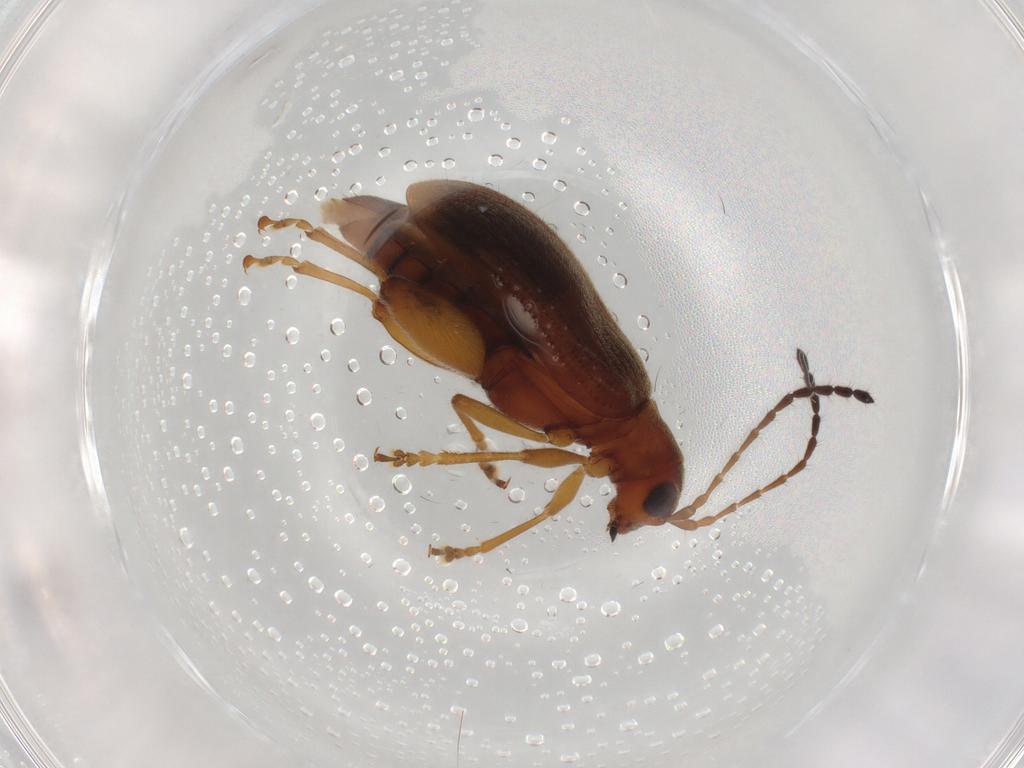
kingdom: Animalia
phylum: Arthropoda
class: Insecta
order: Coleoptera
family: Chrysomelidae
